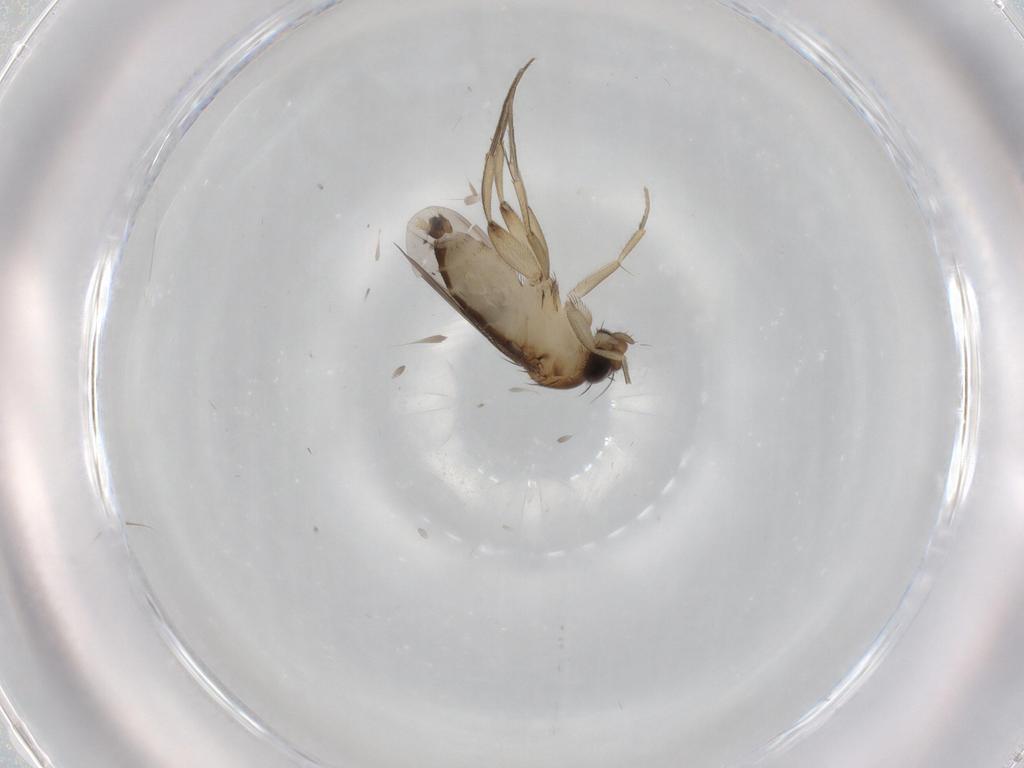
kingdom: Animalia
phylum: Arthropoda
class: Insecta
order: Diptera
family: Phoridae
